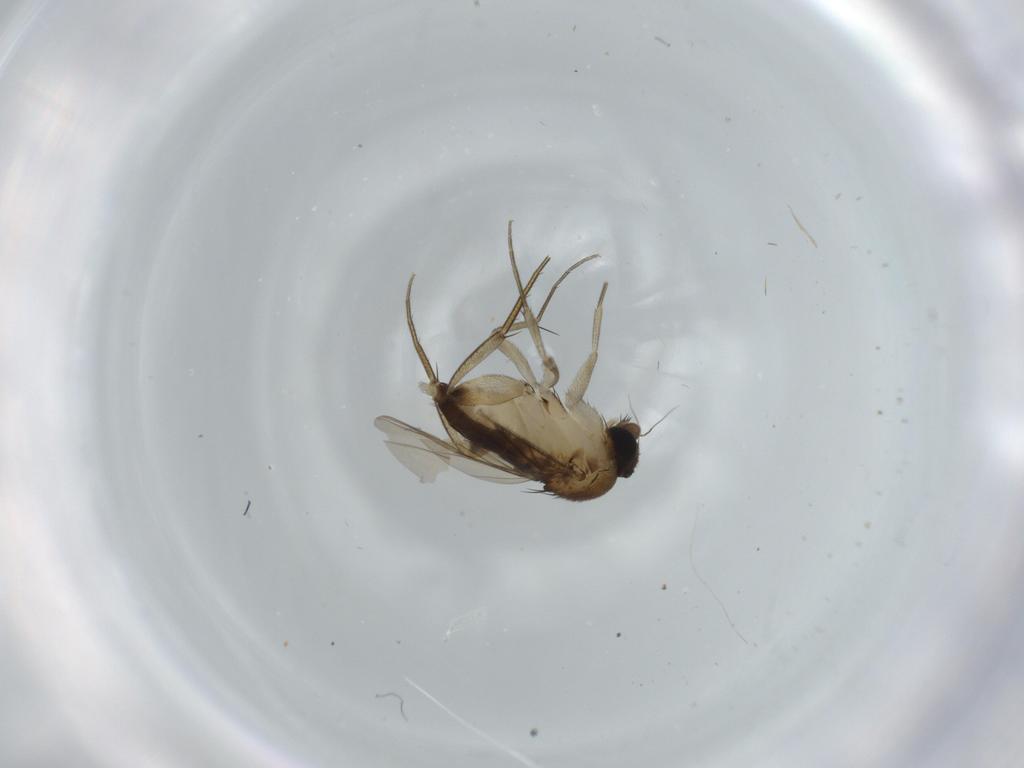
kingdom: Animalia
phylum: Arthropoda
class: Insecta
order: Diptera
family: Phoridae
